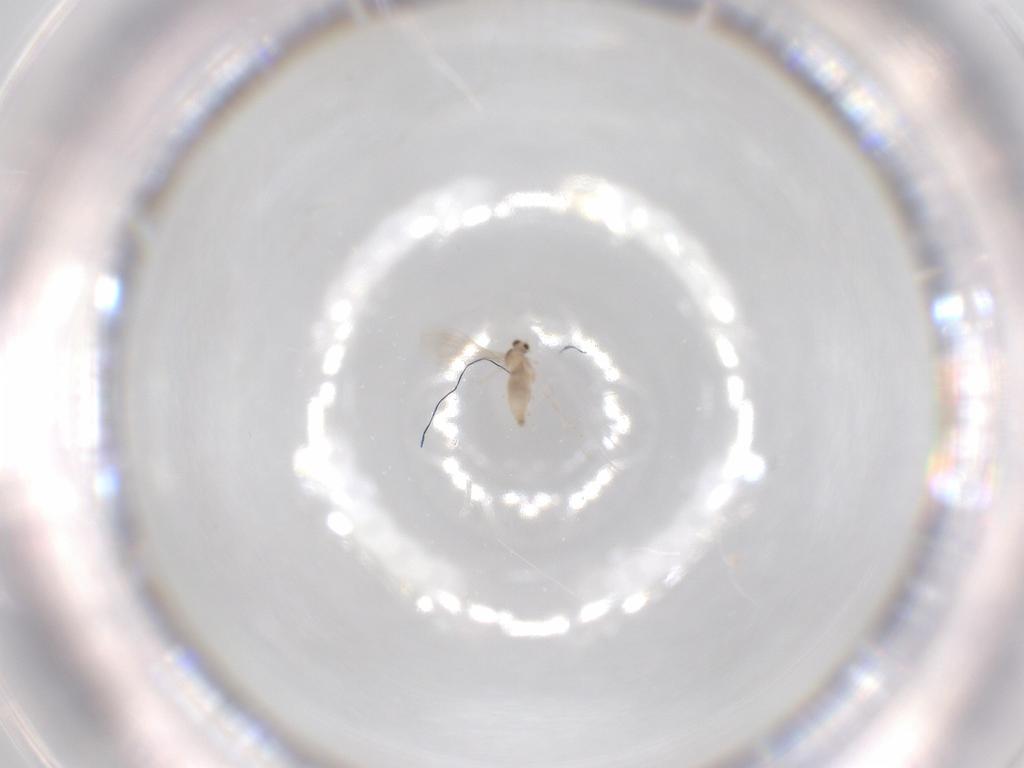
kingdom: Animalia
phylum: Arthropoda
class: Insecta
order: Diptera
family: Cecidomyiidae
